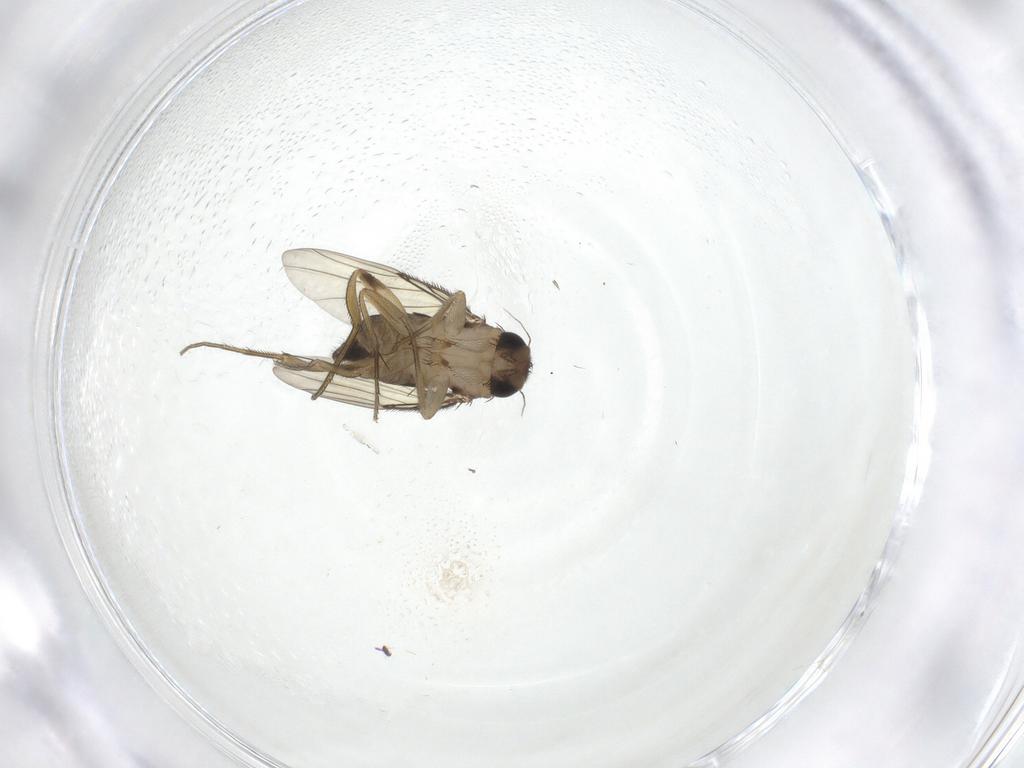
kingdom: Animalia
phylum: Arthropoda
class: Insecta
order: Diptera
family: Phoridae
